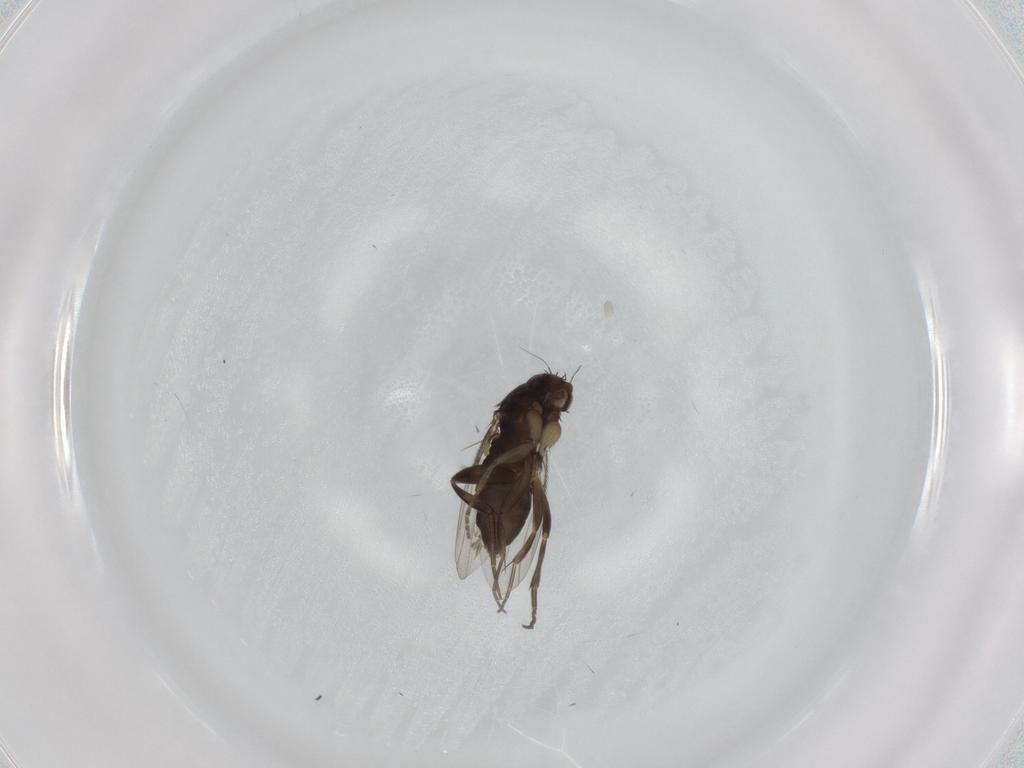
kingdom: Animalia
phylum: Arthropoda
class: Insecta
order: Diptera
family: Phoridae
